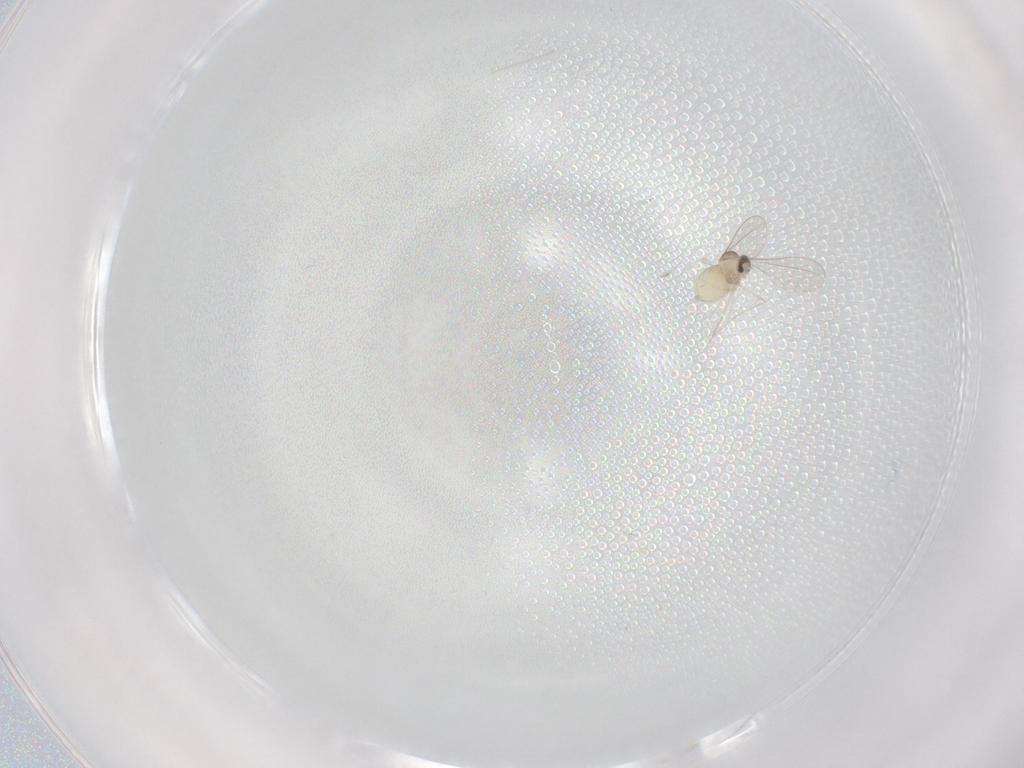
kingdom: Animalia
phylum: Arthropoda
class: Insecta
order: Diptera
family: Cecidomyiidae
